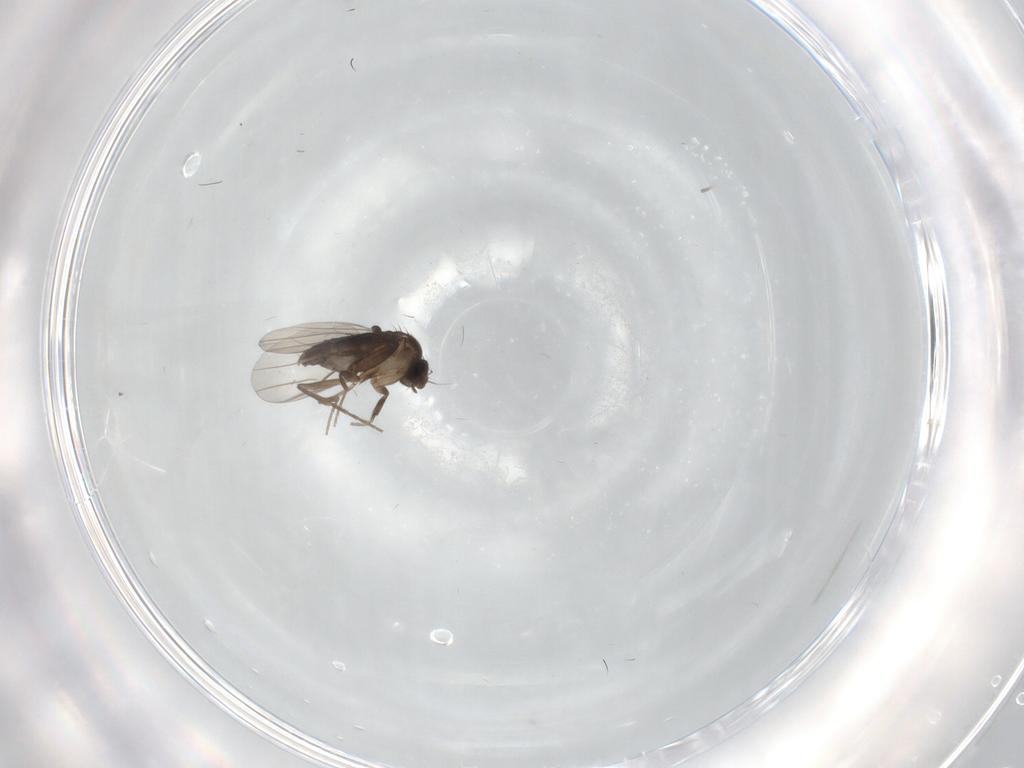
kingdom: Animalia
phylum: Arthropoda
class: Insecta
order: Diptera
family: Phoridae
